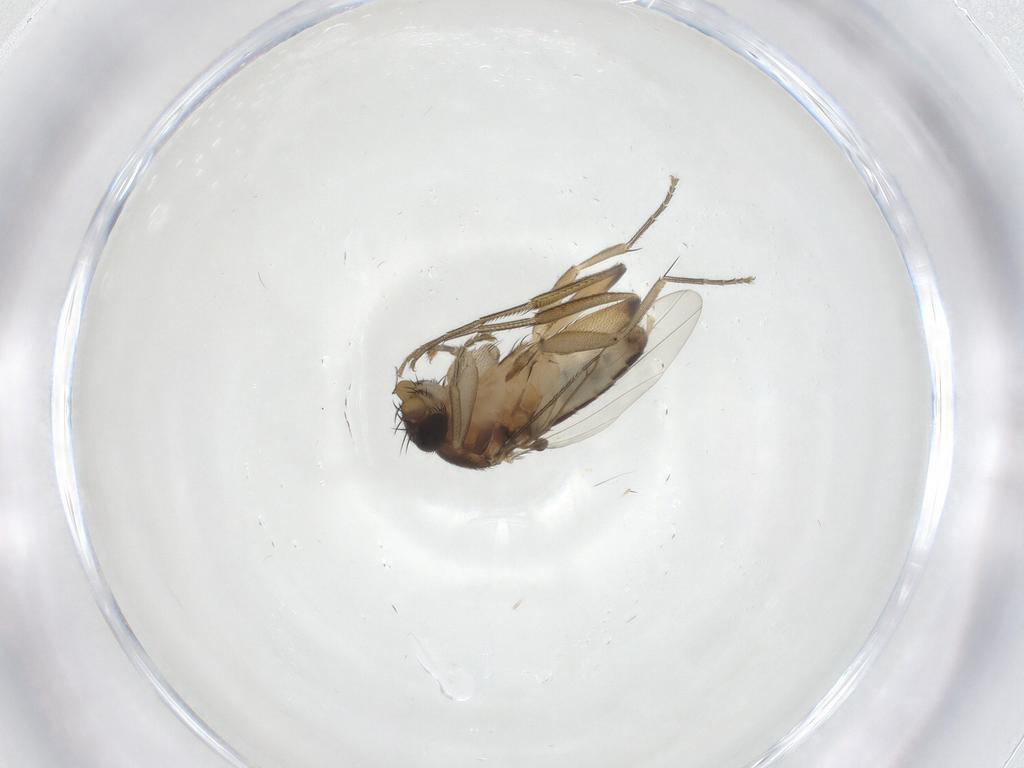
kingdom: Animalia
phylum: Arthropoda
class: Insecta
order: Diptera
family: Phoridae
